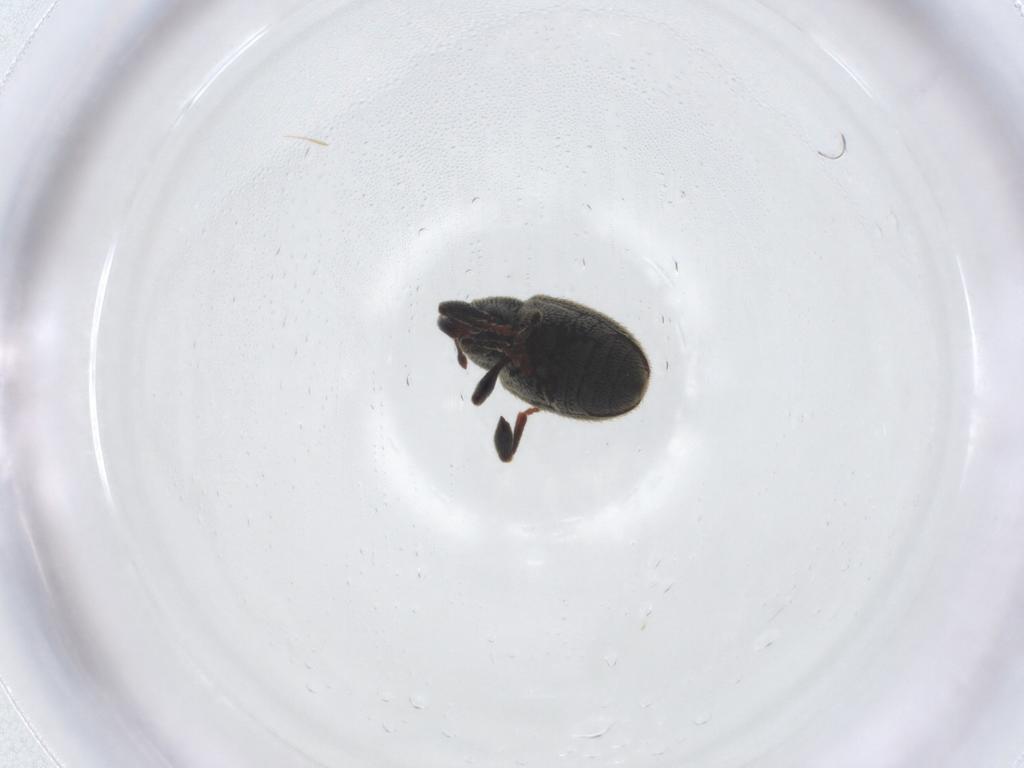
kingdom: Animalia
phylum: Arthropoda
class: Insecta
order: Coleoptera
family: Curculionidae
